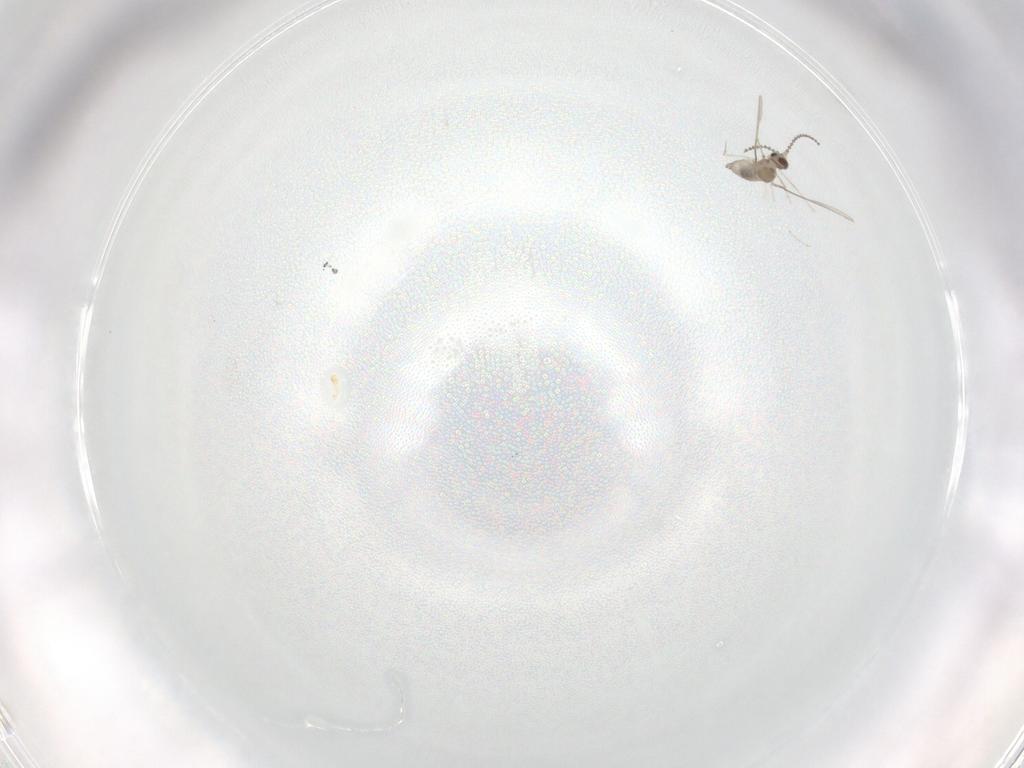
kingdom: Animalia
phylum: Arthropoda
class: Insecta
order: Diptera
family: Cecidomyiidae
